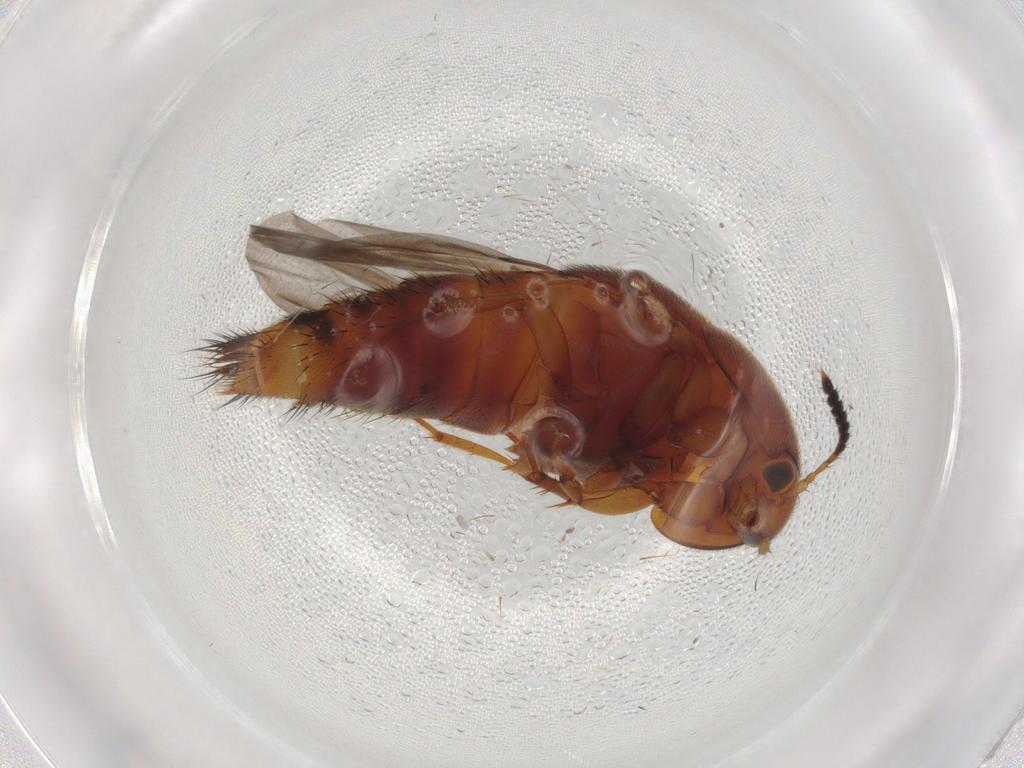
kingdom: Animalia
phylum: Arthropoda
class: Insecta
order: Coleoptera
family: Staphylinidae
